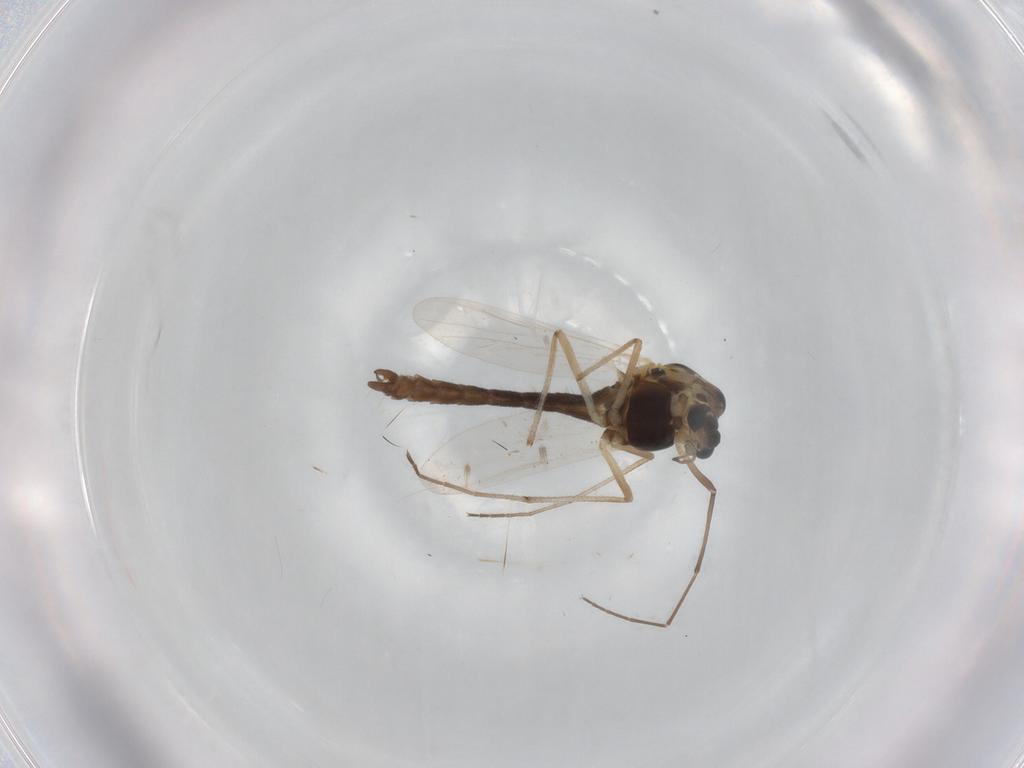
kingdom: Animalia
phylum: Arthropoda
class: Insecta
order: Diptera
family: Chironomidae
